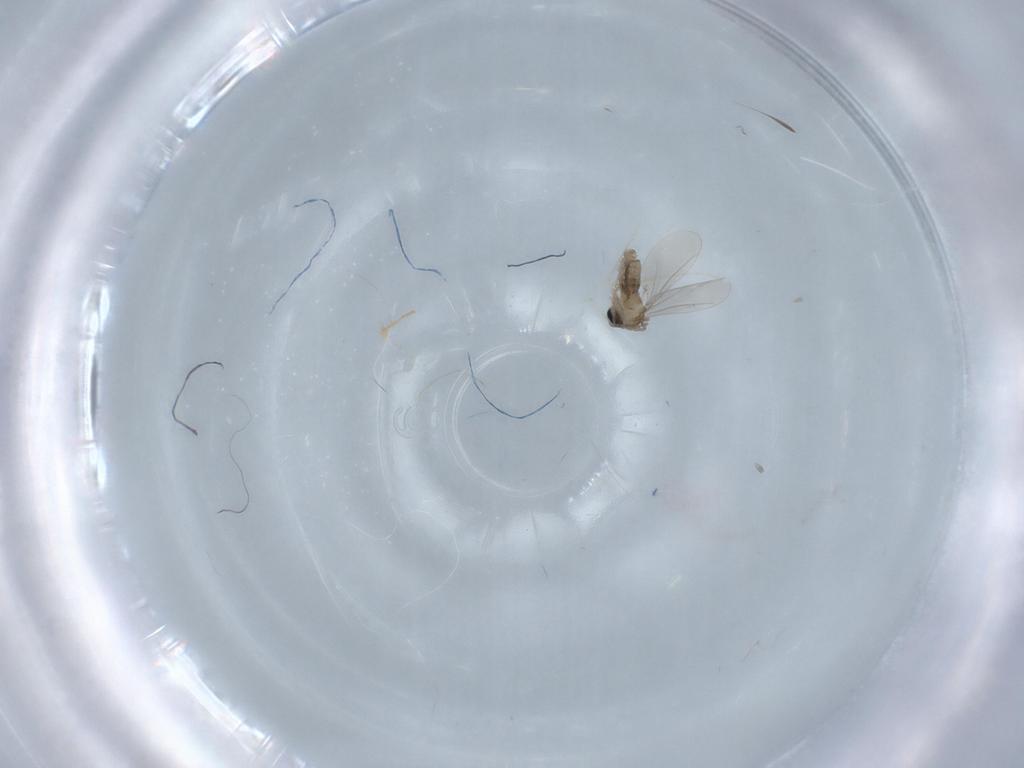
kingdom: Animalia
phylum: Arthropoda
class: Insecta
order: Diptera
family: Cecidomyiidae
